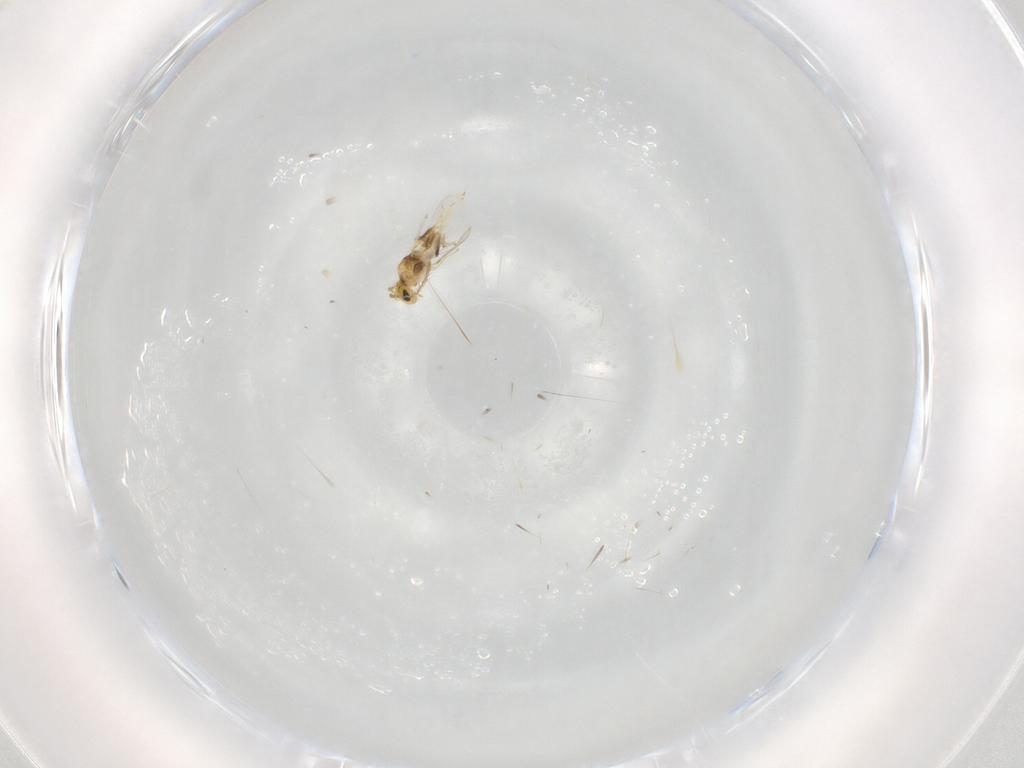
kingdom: Animalia
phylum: Arthropoda
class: Insecta
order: Hymenoptera
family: Encyrtidae
